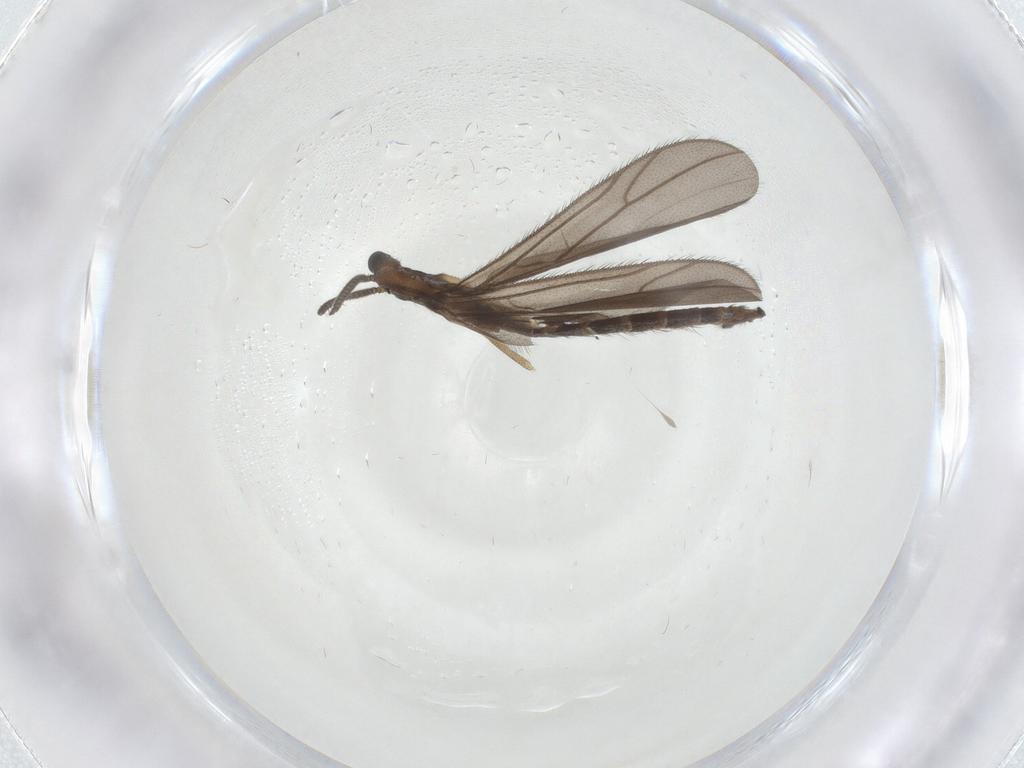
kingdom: Animalia
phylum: Arthropoda
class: Insecta
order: Diptera
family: Ditomyiidae
